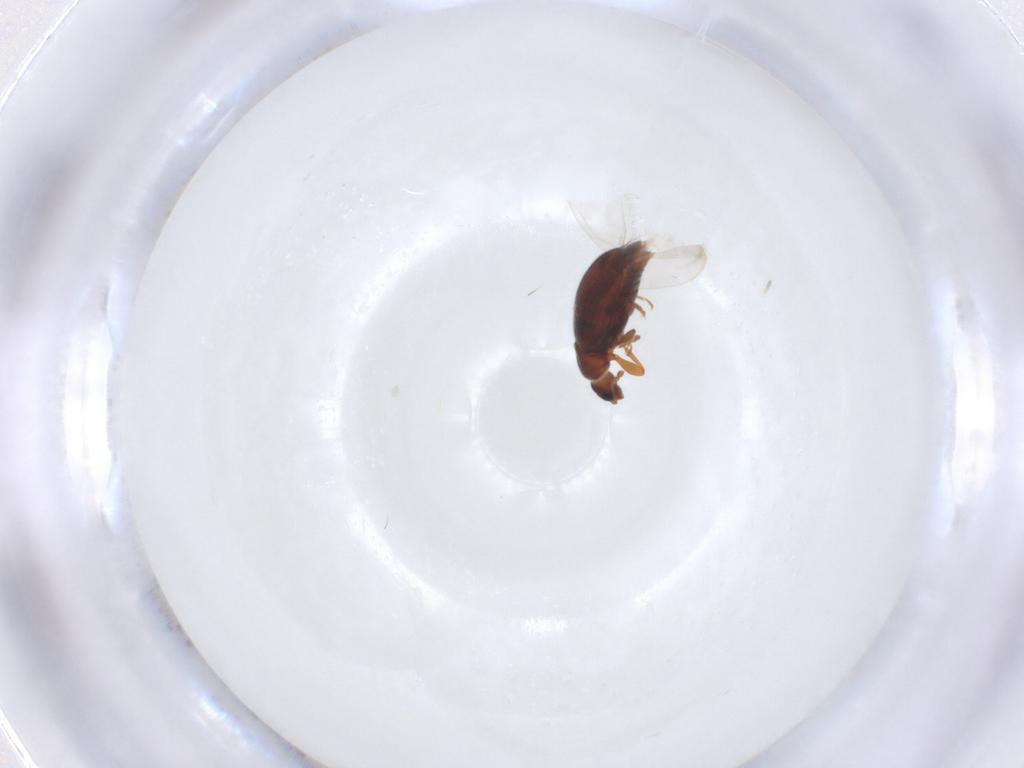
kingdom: Animalia
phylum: Arthropoda
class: Insecta
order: Coleoptera
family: Latridiidae
